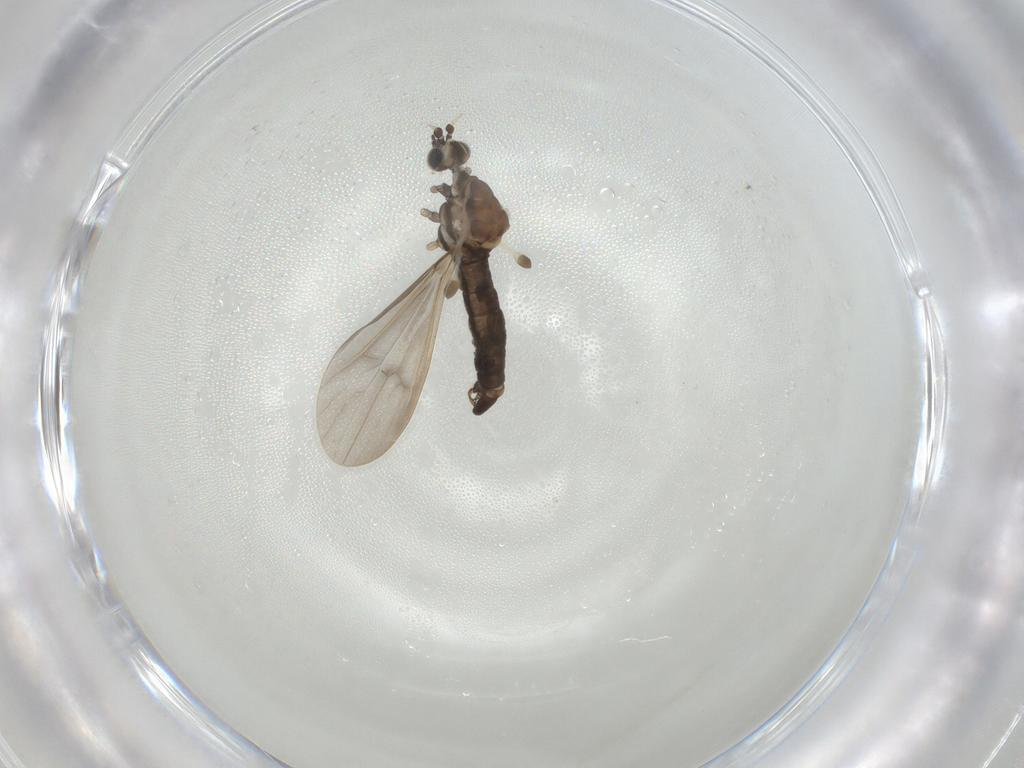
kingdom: Animalia
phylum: Arthropoda
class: Insecta
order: Diptera
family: Limoniidae
